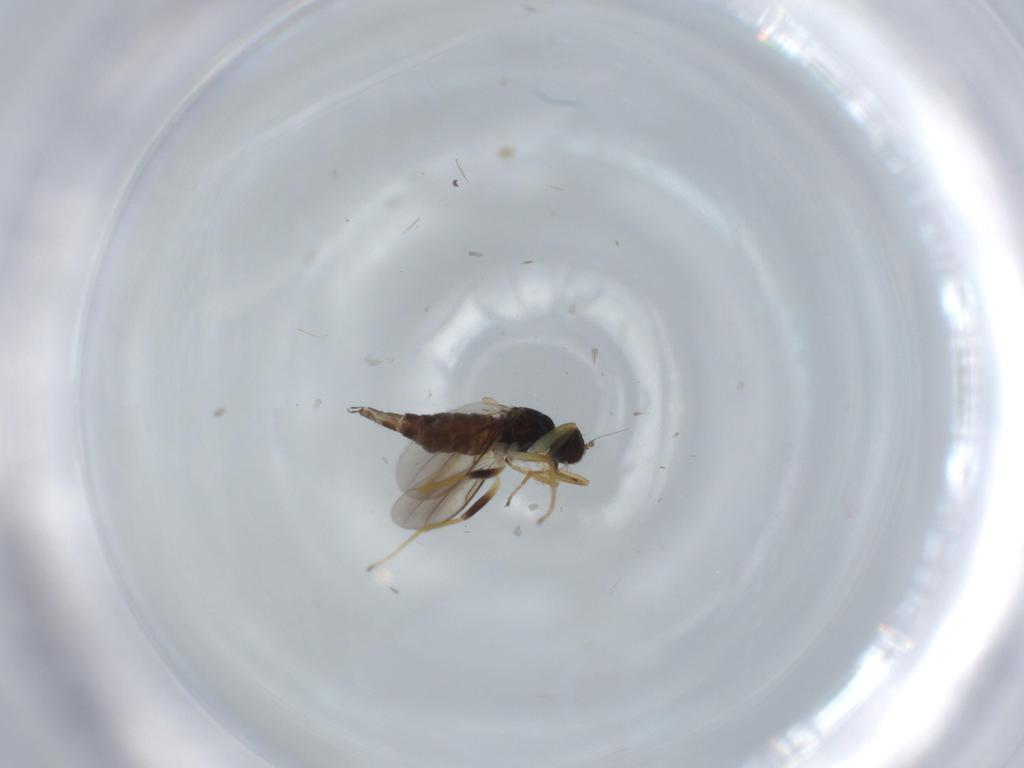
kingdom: Animalia
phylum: Arthropoda
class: Insecta
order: Diptera
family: Hybotidae
